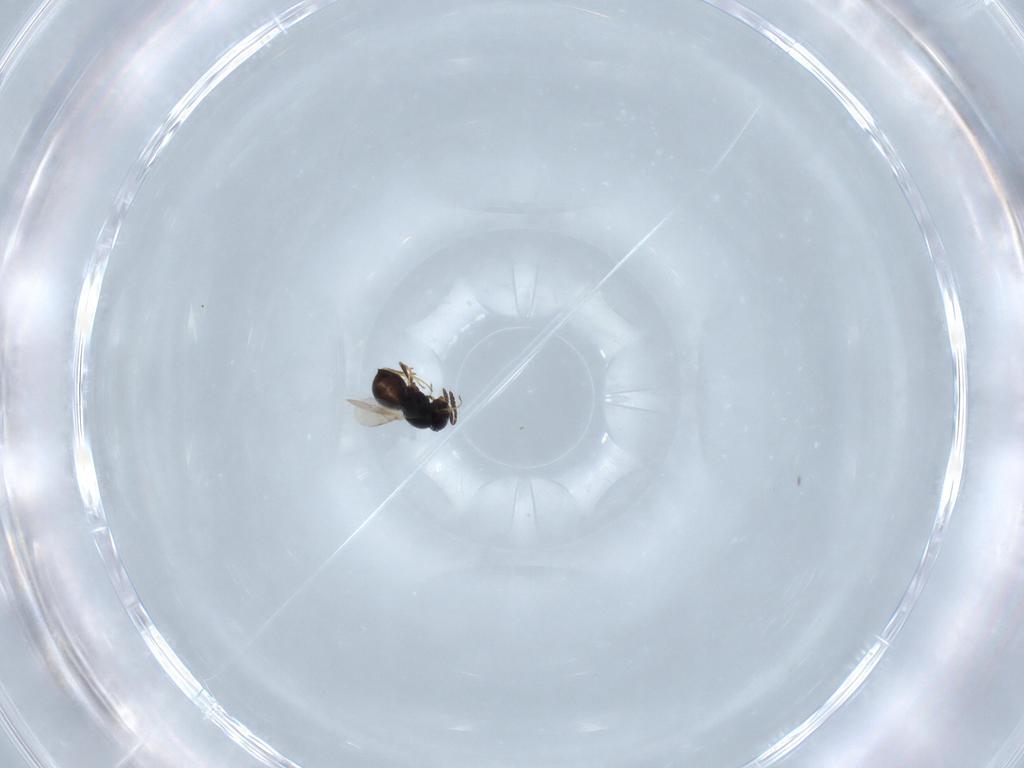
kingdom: Animalia
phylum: Arthropoda
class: Insecta
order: Hymenoptera
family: Scelionidae
